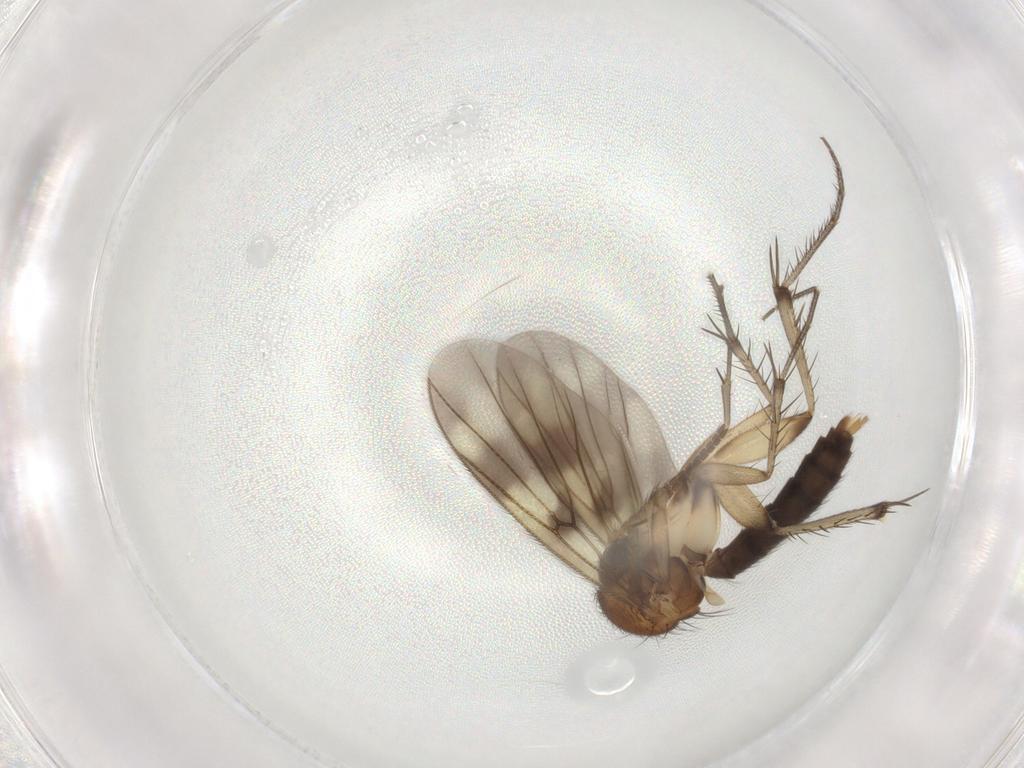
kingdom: Animalia
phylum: Arthropoda
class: Insecta
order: Diptera
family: Mycetophilidae
